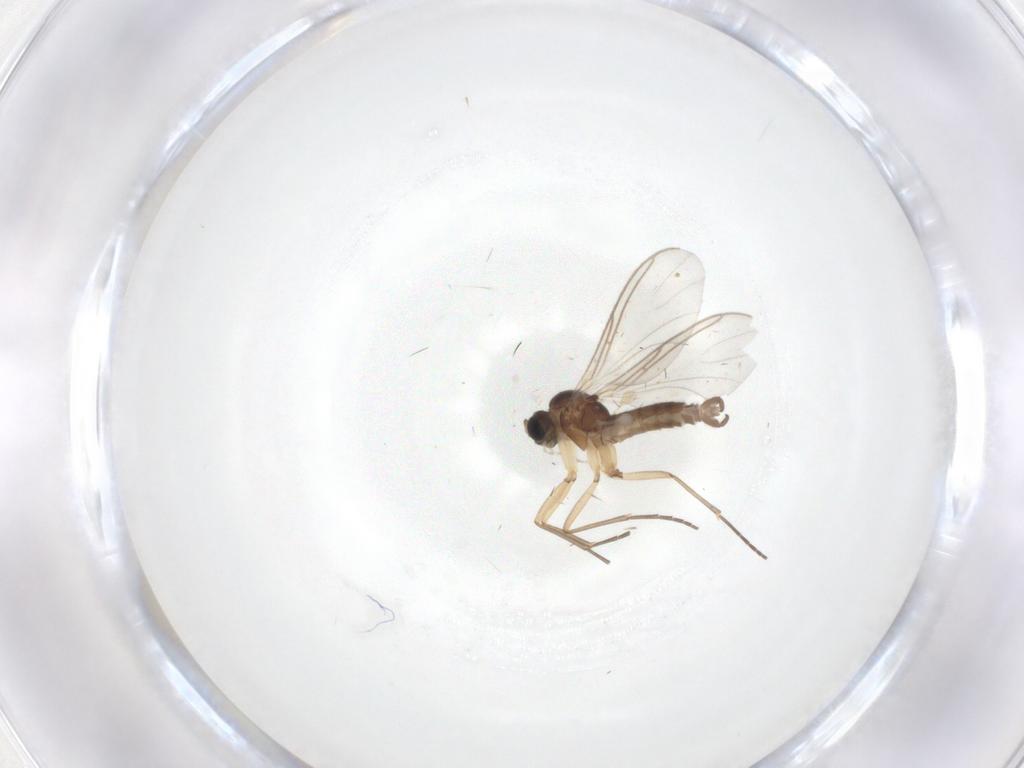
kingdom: Animalia
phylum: Arthropoda
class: Insecta
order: Diptera
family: Sciaridae
